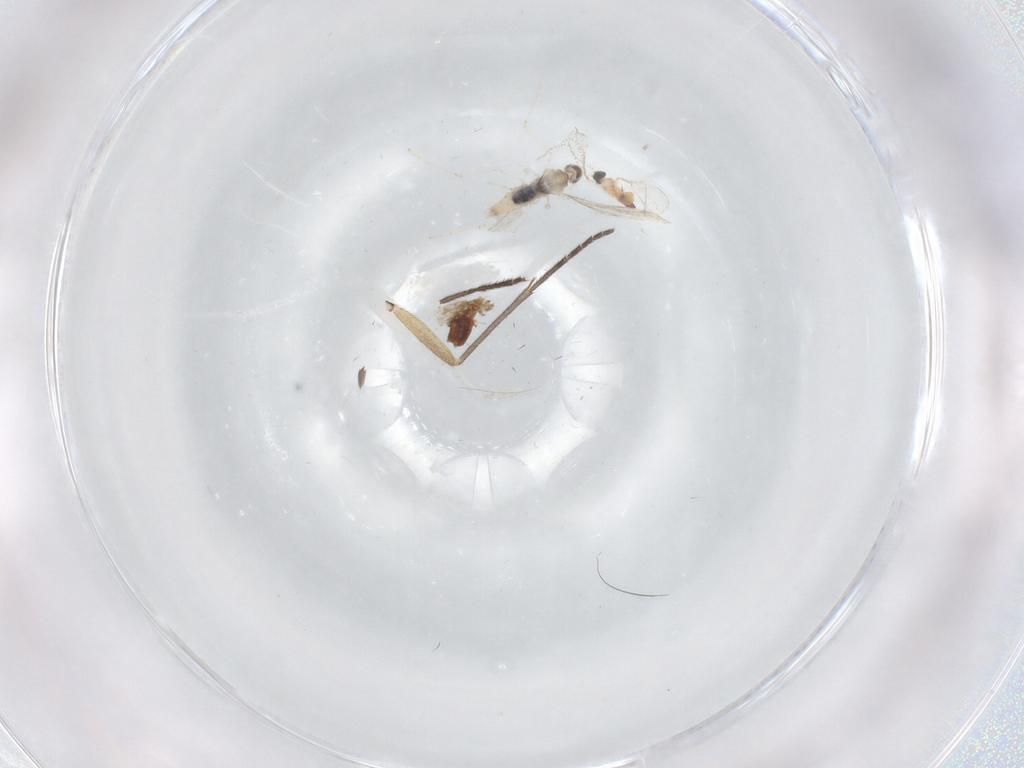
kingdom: Animalia
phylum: Arthropoda
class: Insecta
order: Diptera
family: Cecidomyiidae
